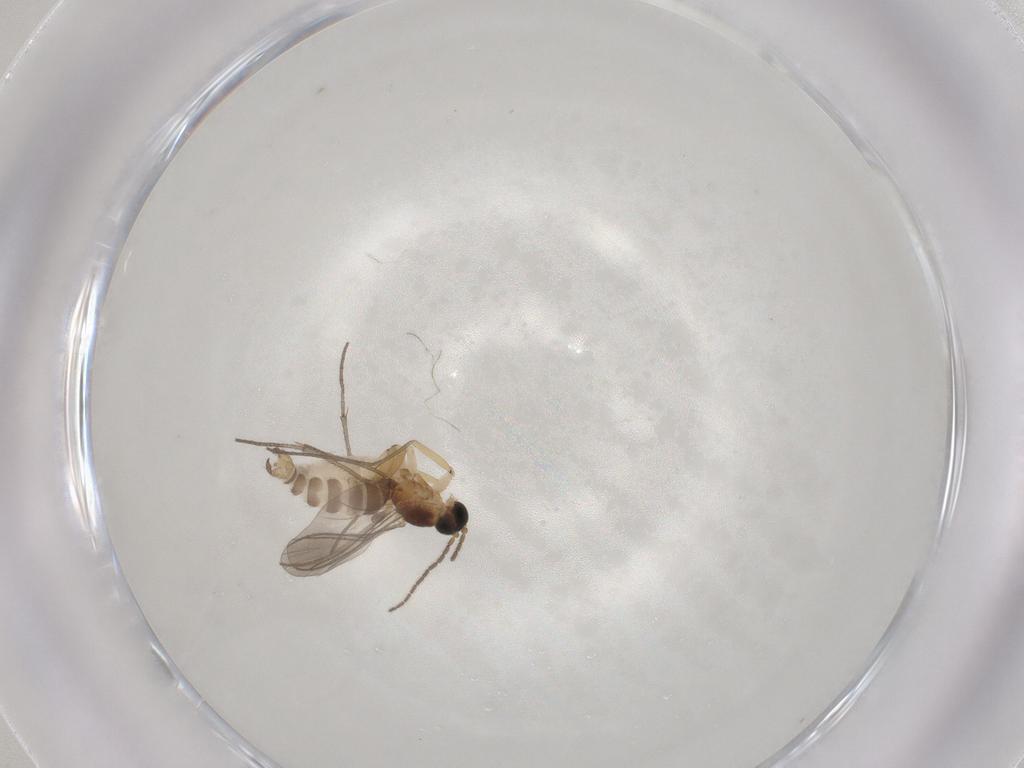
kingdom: Animalia
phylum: Arthropoda
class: Insecta
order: Diptera
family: Sciaridae
